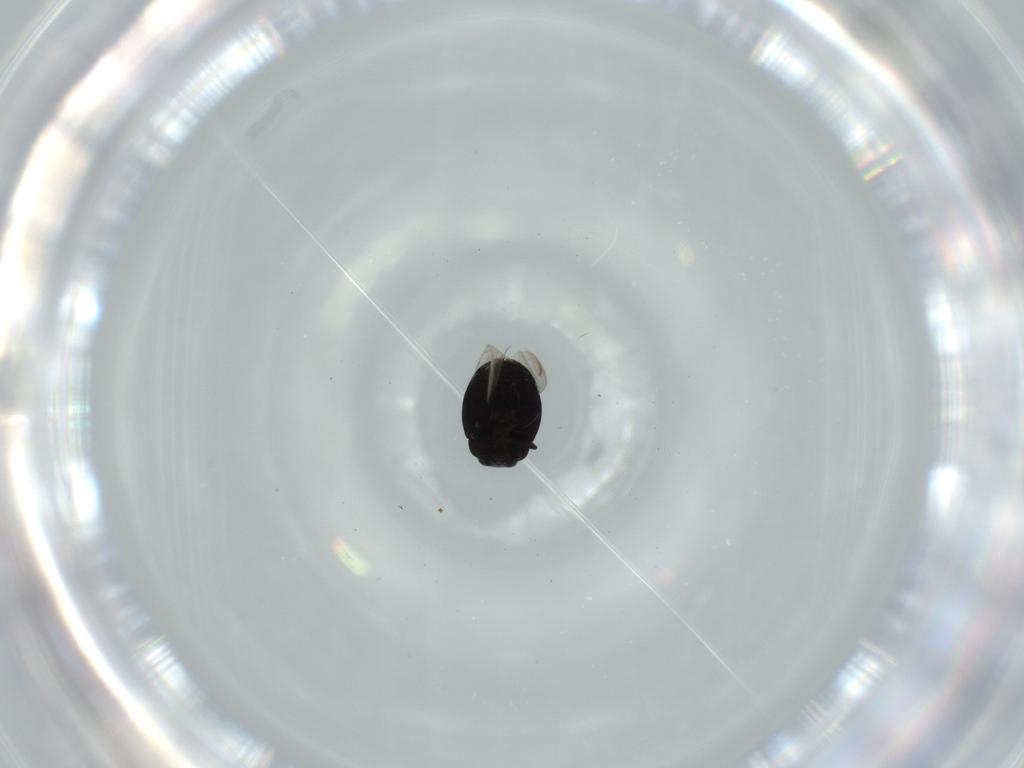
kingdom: Animalia
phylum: Arthropoda
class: Insecta
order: Coleoptera
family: Coccinellidae
